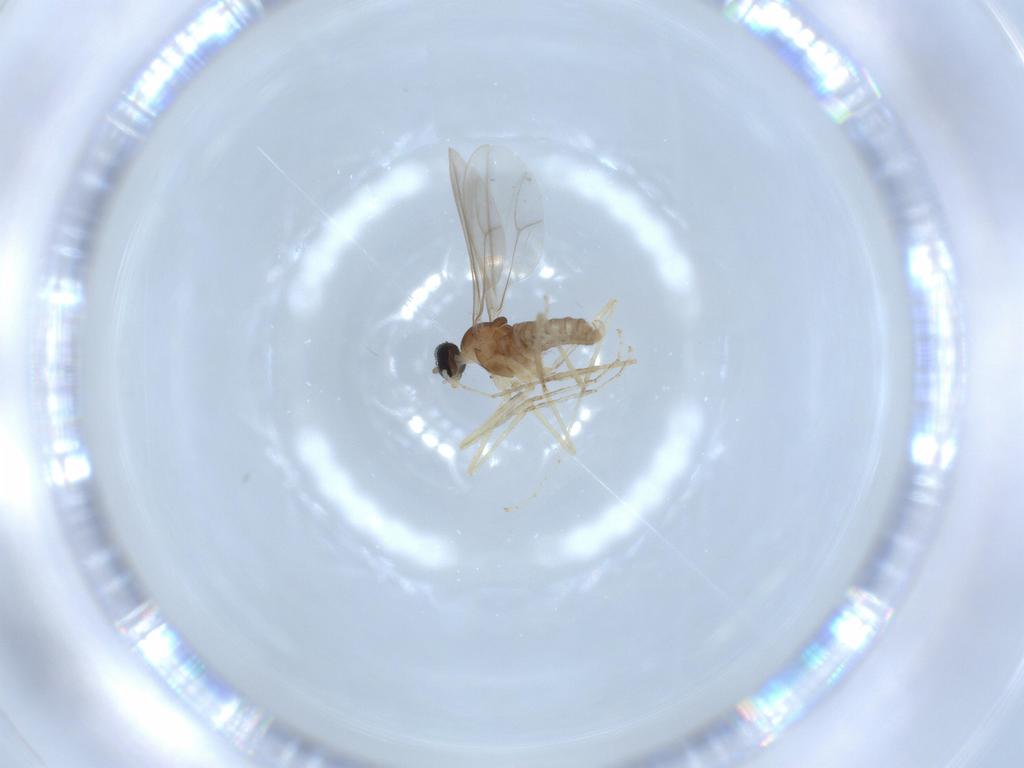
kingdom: Animalia
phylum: Arthropoda
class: Insecta
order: Diptera
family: Cecidomyiidae
